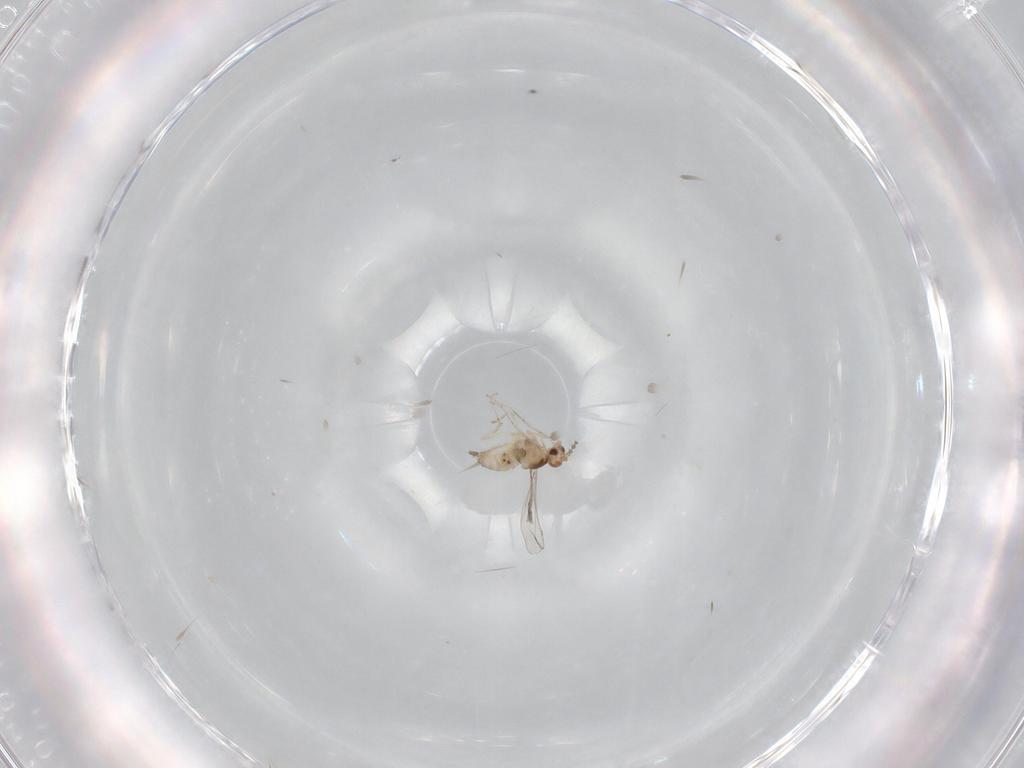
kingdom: Animalia
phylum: Arthropoda
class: Insecta
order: Diptera
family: Cecidomyiidae
